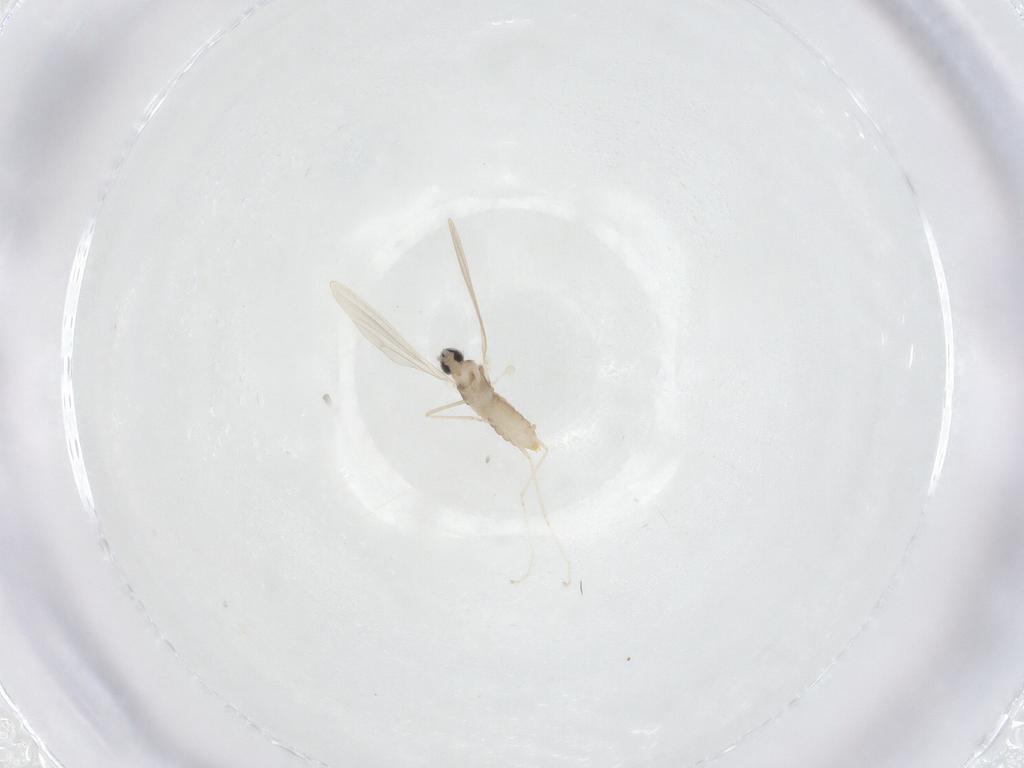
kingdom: Animalia
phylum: Arthropoda
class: Insecta
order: Diptera
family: Cecidomyiidae
